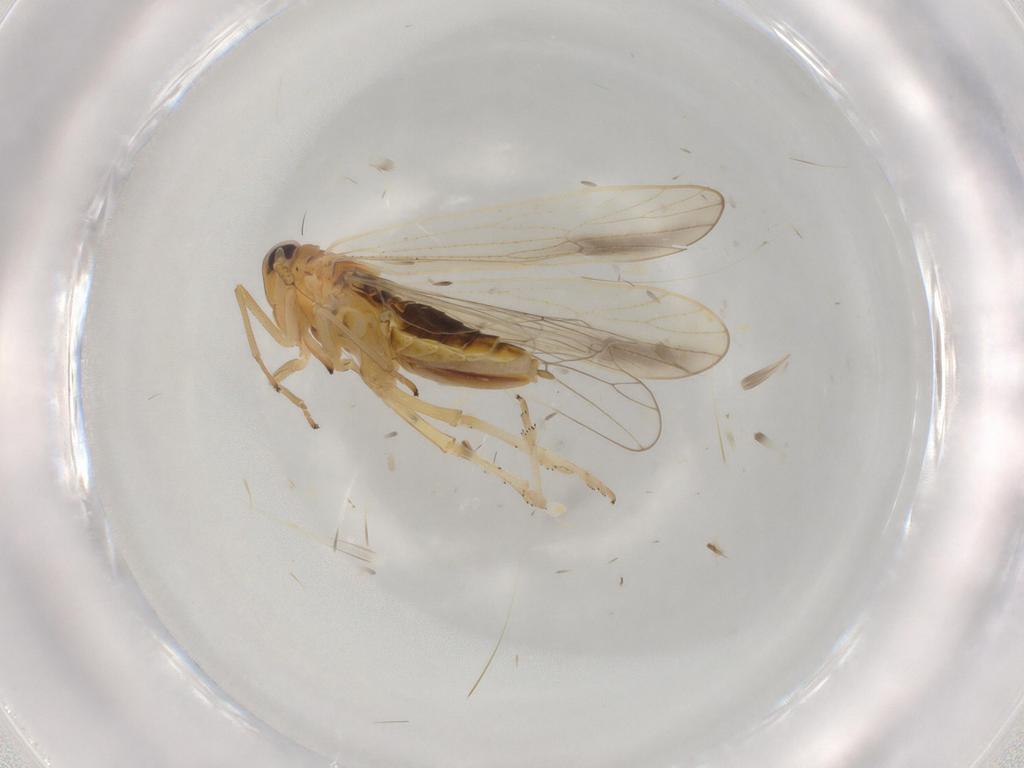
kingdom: Animalia
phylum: Arthropoda
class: Insecta
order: Hemiptera
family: Delphacidae
